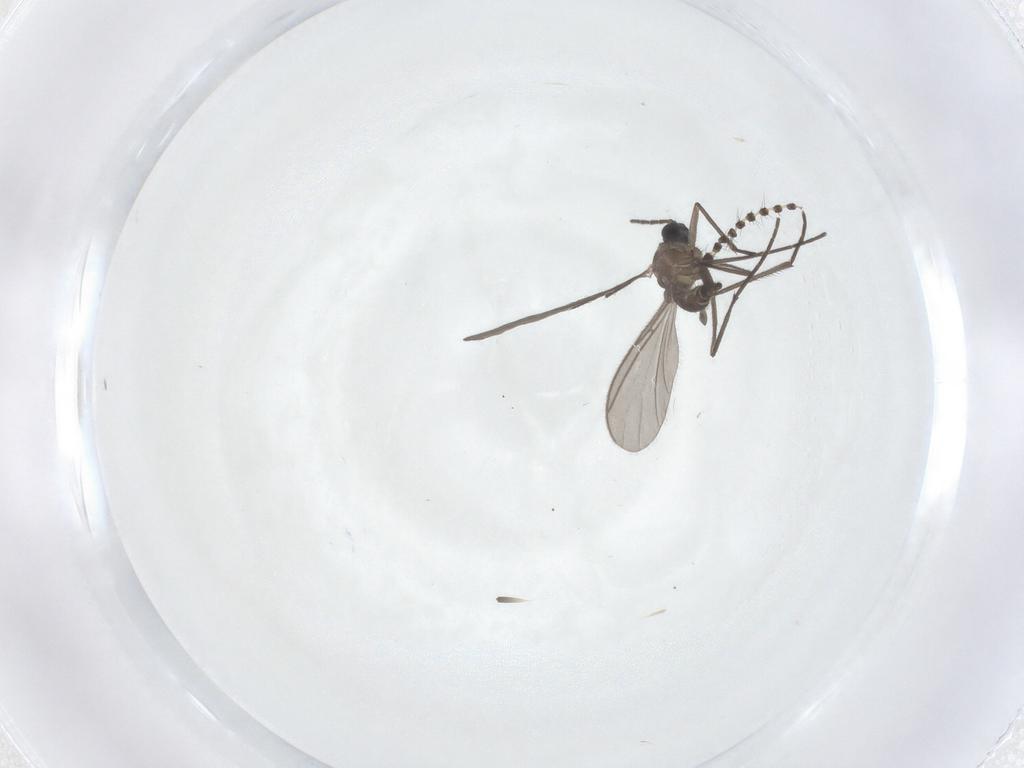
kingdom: Animalia
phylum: Arthropoda
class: Insecta
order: Diptera
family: Sciaridae
